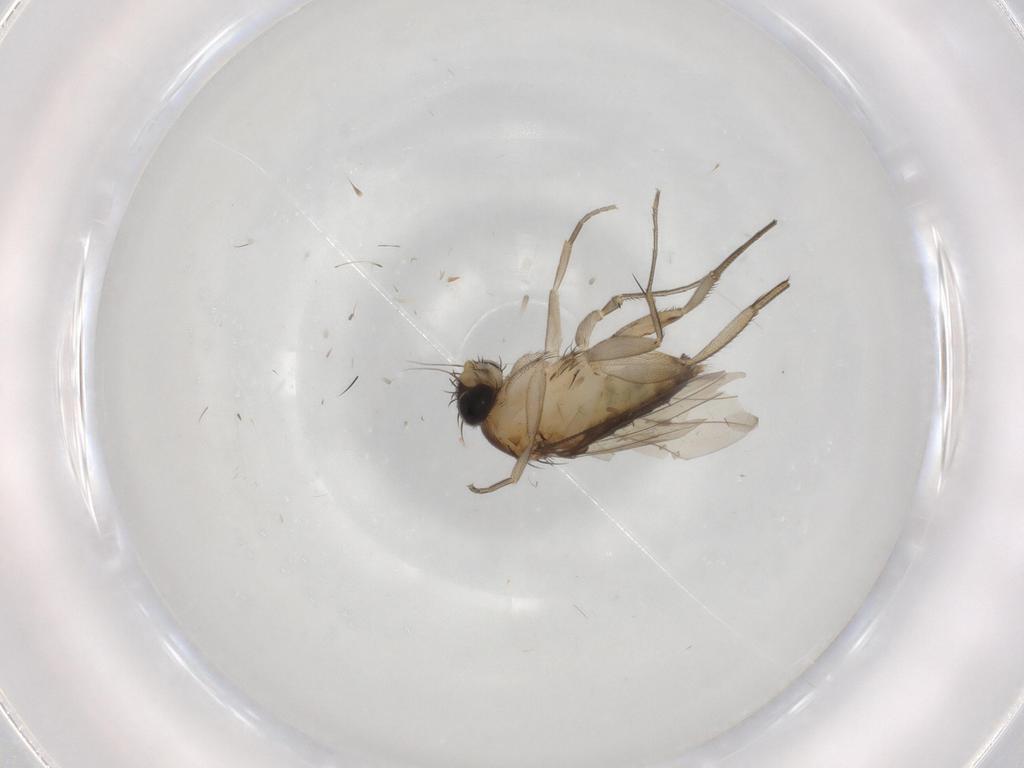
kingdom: Animalia
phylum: Arthropoda
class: Insecta
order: Diptera
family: Phoridae
